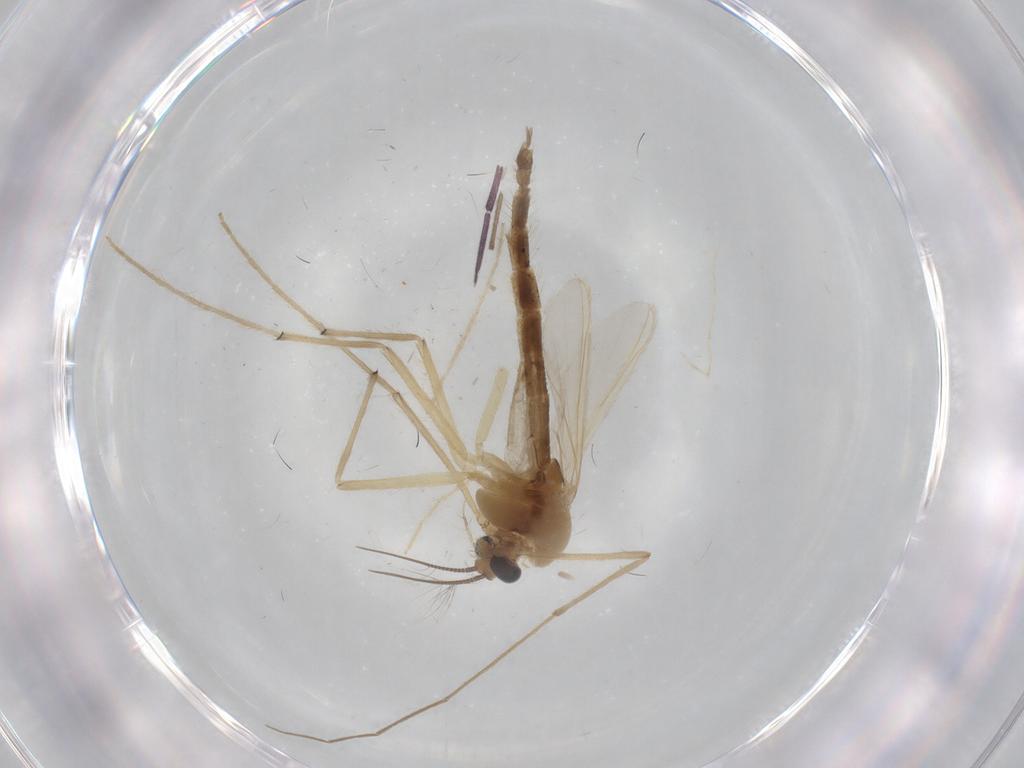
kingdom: Animalia
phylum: Arthropoda
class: Insecta
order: Diptera
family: Chironomidae
